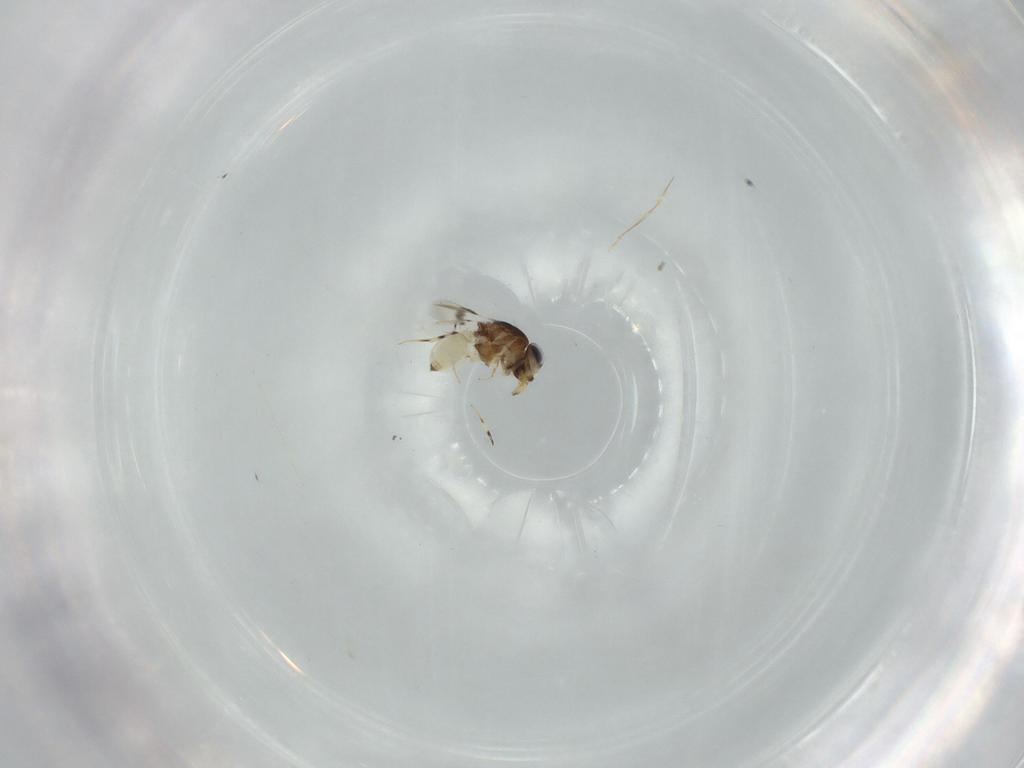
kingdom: Animalia
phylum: Arthropoda
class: Insecta
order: Hymenoptera
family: Scelionidae
